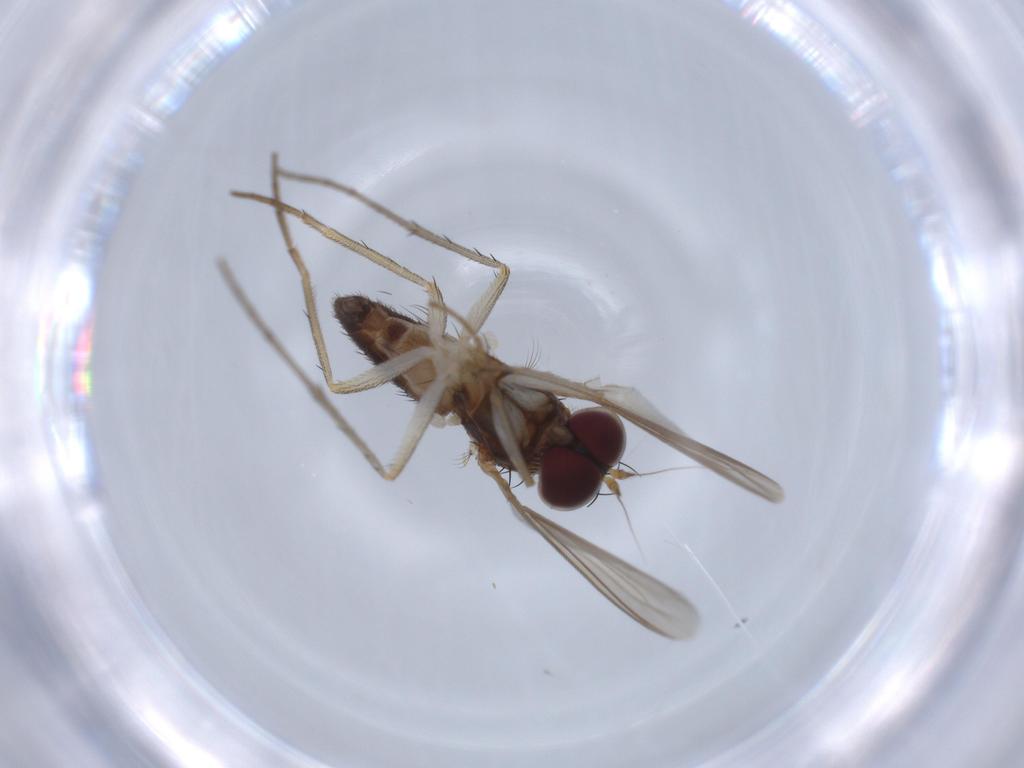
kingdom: Animalia
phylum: Arthropoda
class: Insecta
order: Diptera
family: Dolichopodidae
